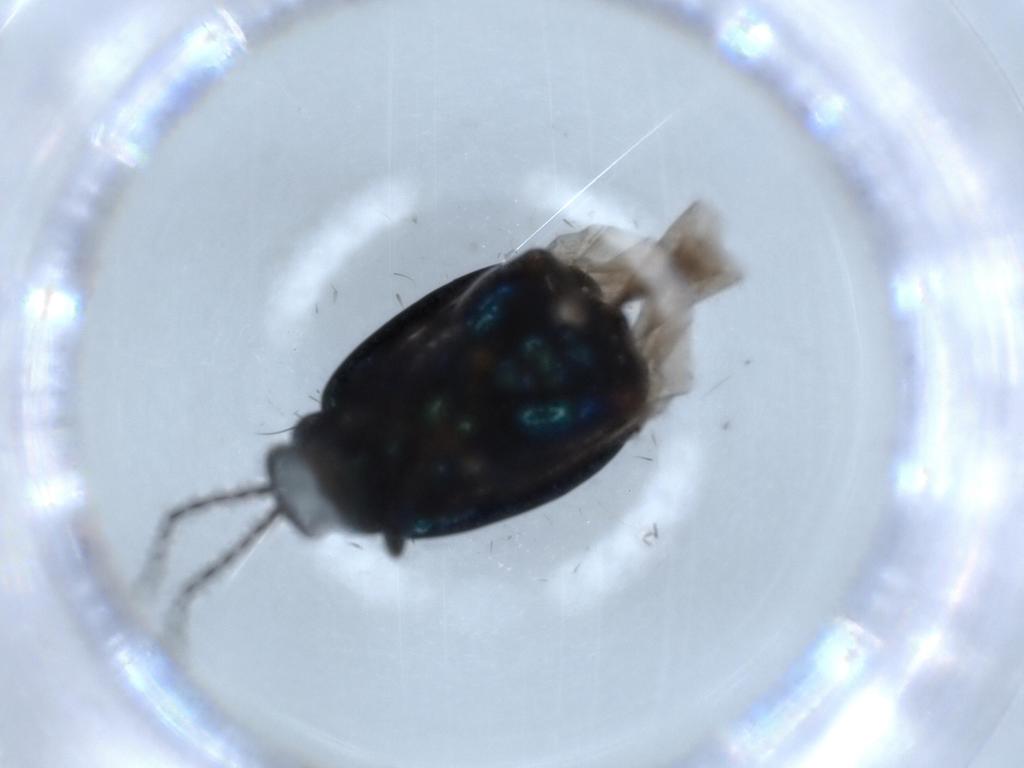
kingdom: Animalia
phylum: Arthropoda
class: Insecta
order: Coleoptera
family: Chrysomelidae
